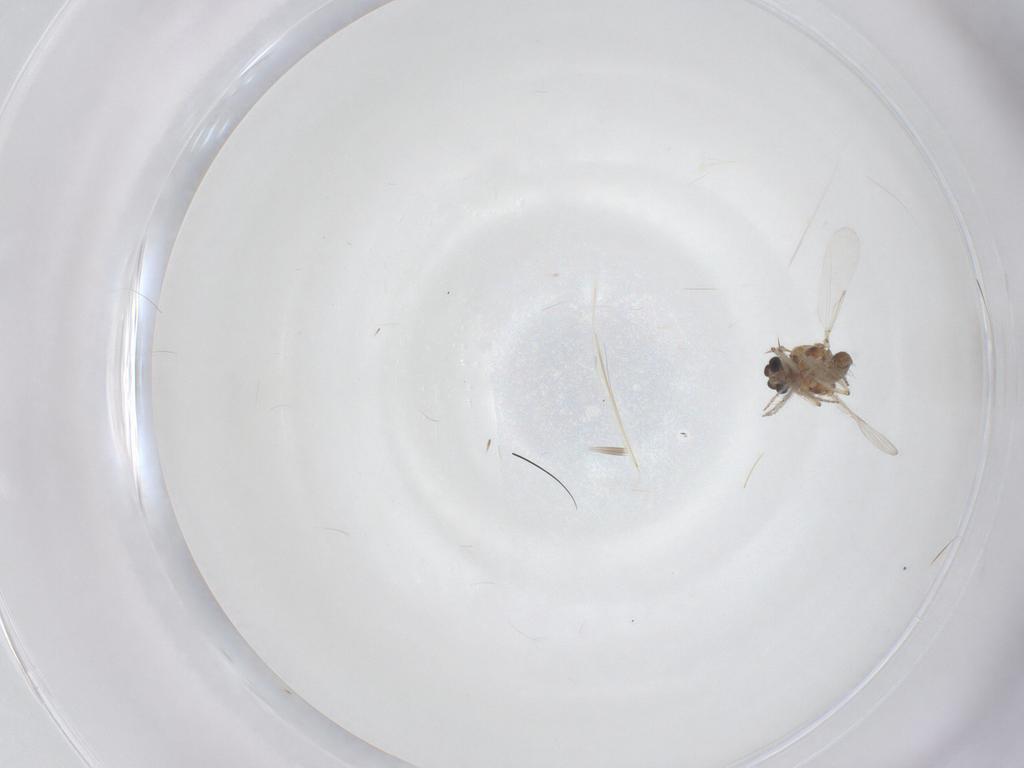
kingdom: Animalia
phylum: Arthropoda
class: Insecta
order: Diptera
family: Ceratopogonidae
